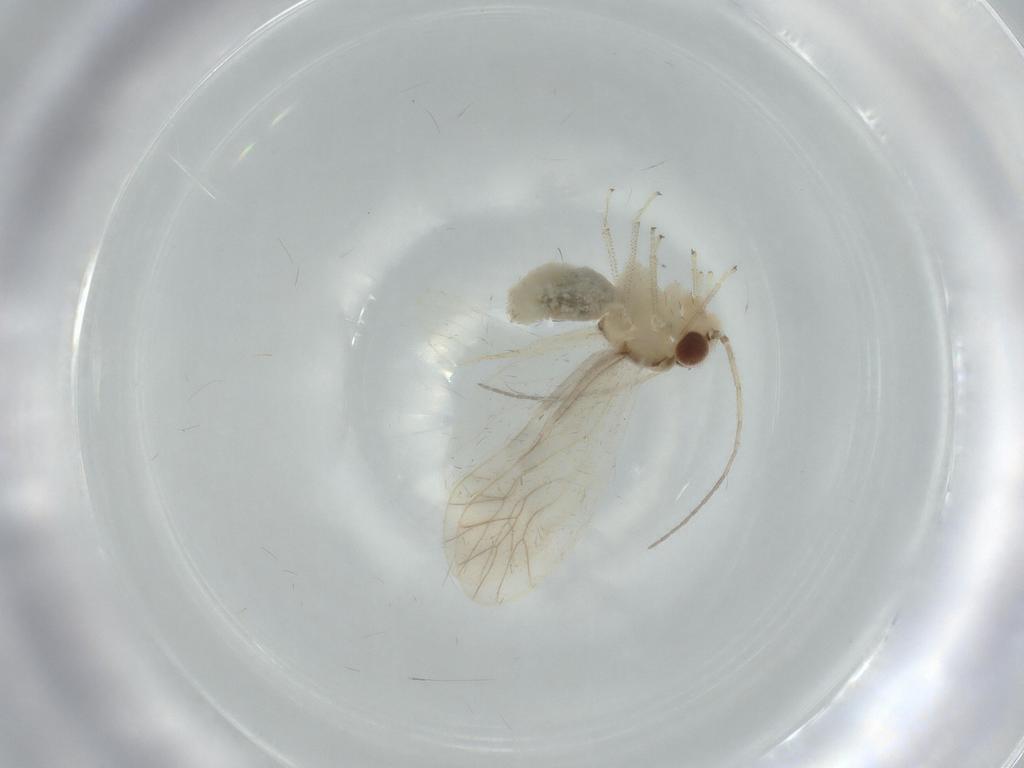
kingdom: Animalia
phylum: Arthropoda
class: Insecta
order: Psocodea
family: Caeciliusidae
